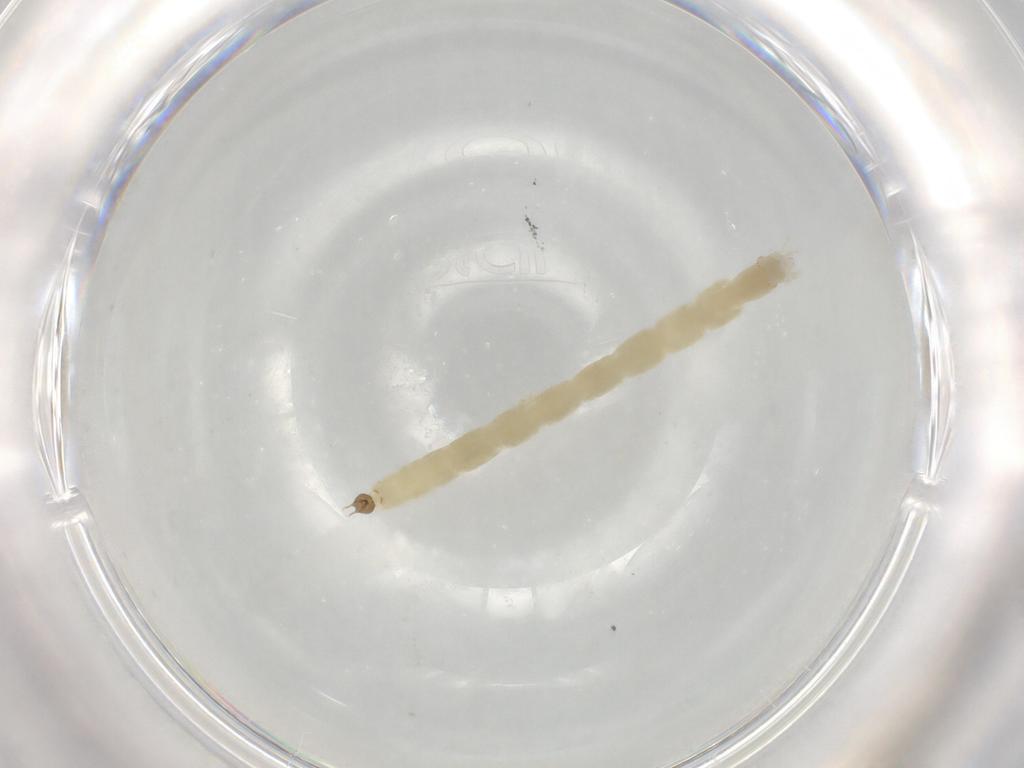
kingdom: Animalia
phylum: Arthropoda
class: Insecta
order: Diptera
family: Chironomidae
